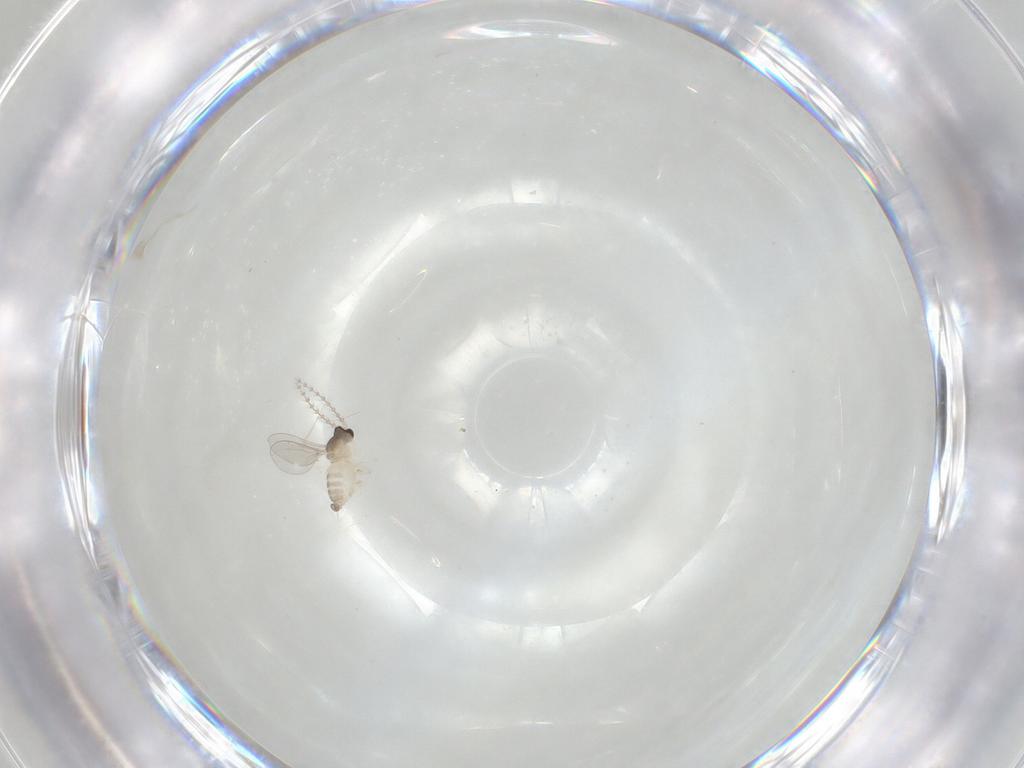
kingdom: Animalia
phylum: Arthropoda
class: Insecta
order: Diptera
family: Cecidomyiidae
